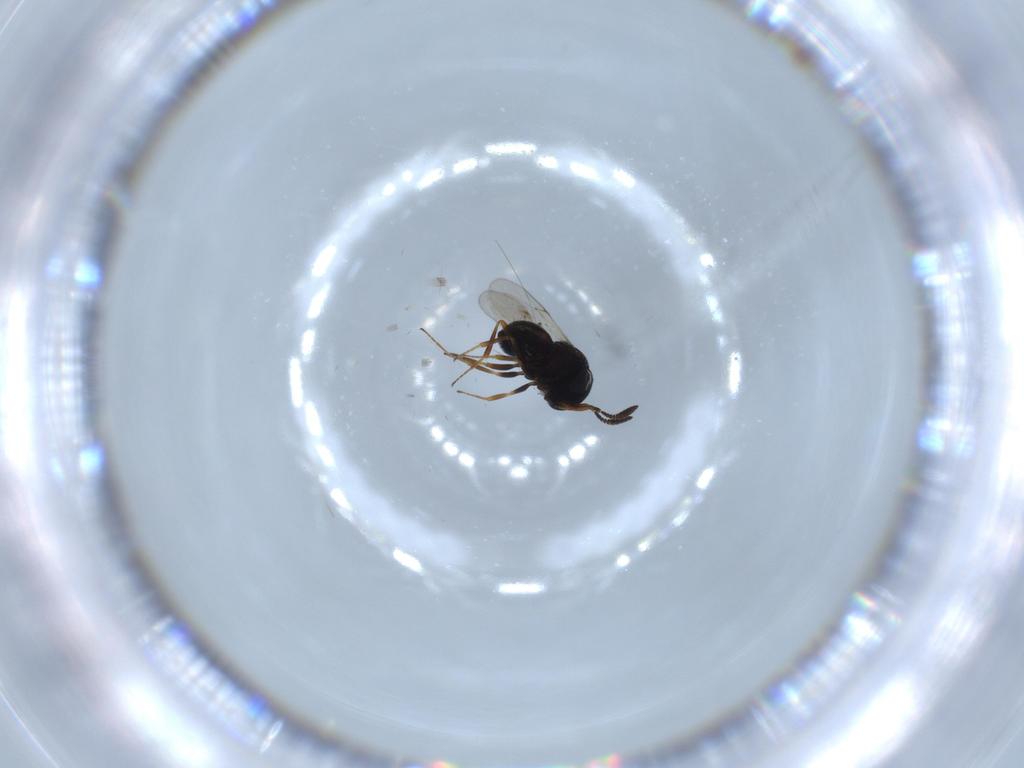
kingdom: Animalia
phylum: Arthropoda
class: Insecta
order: Hymenoptera
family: Scelionidae
